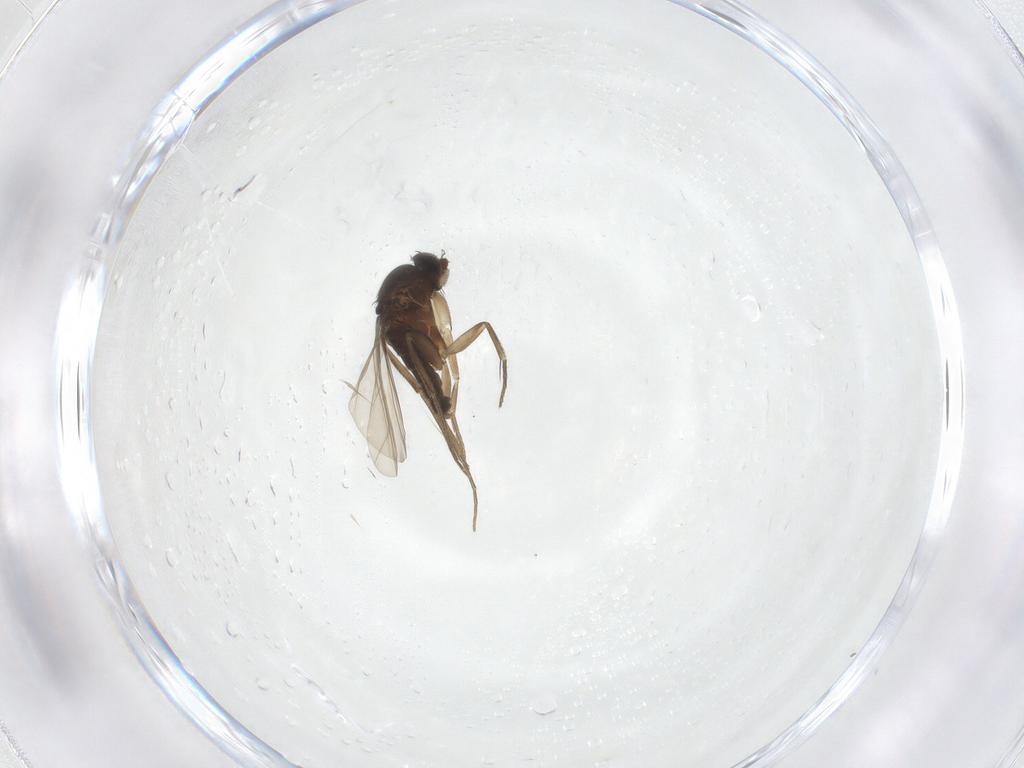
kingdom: Animalia
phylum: Arthropoda
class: Insecta
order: Diptera
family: Phoridae
